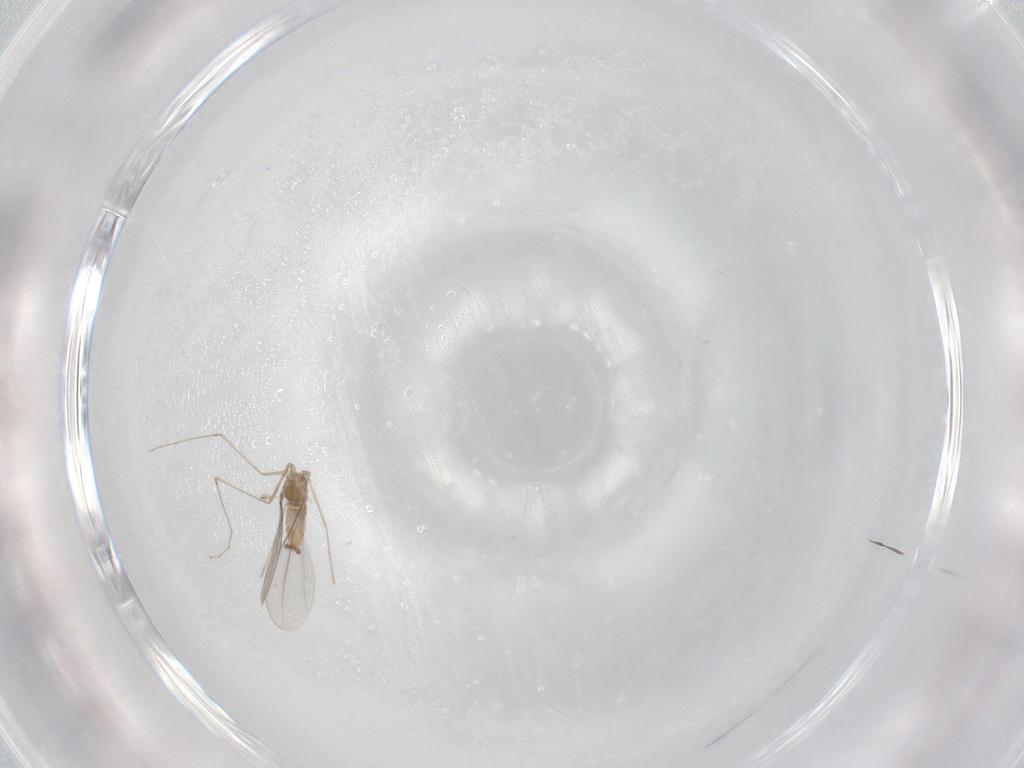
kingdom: Animalia
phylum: Arthropoda
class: Insecta
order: Diptera
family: Cecidomyiidae
